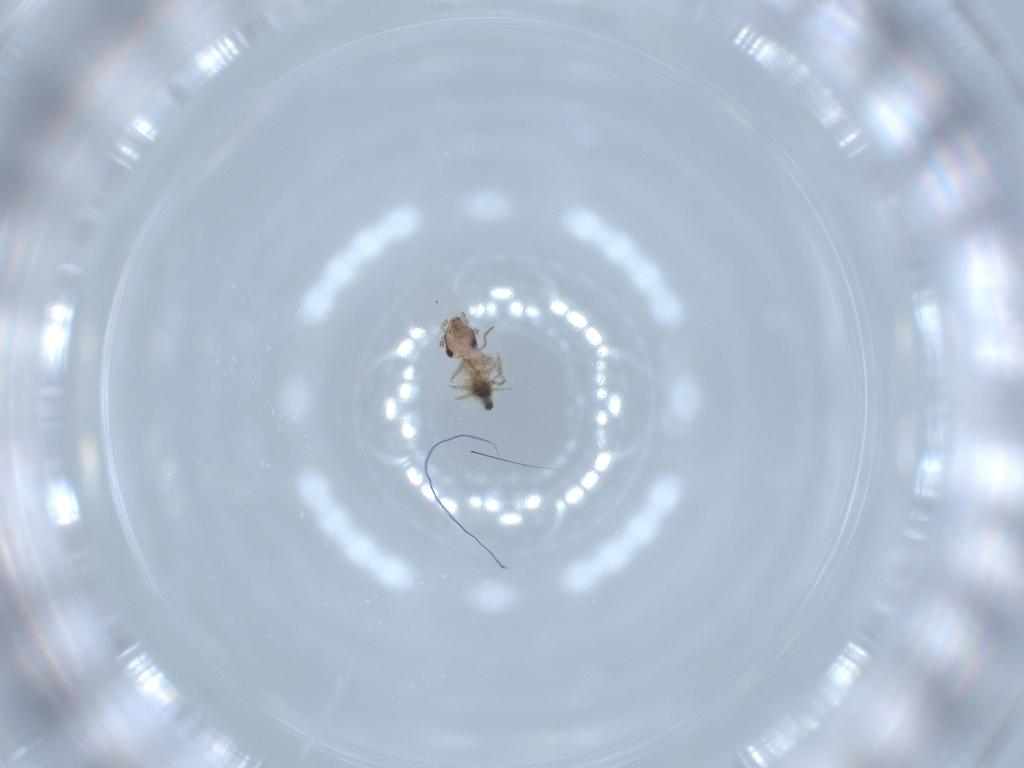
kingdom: Animalia
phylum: Arthropoda
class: Insecta
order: Psocodea
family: Lepidopsocidae
